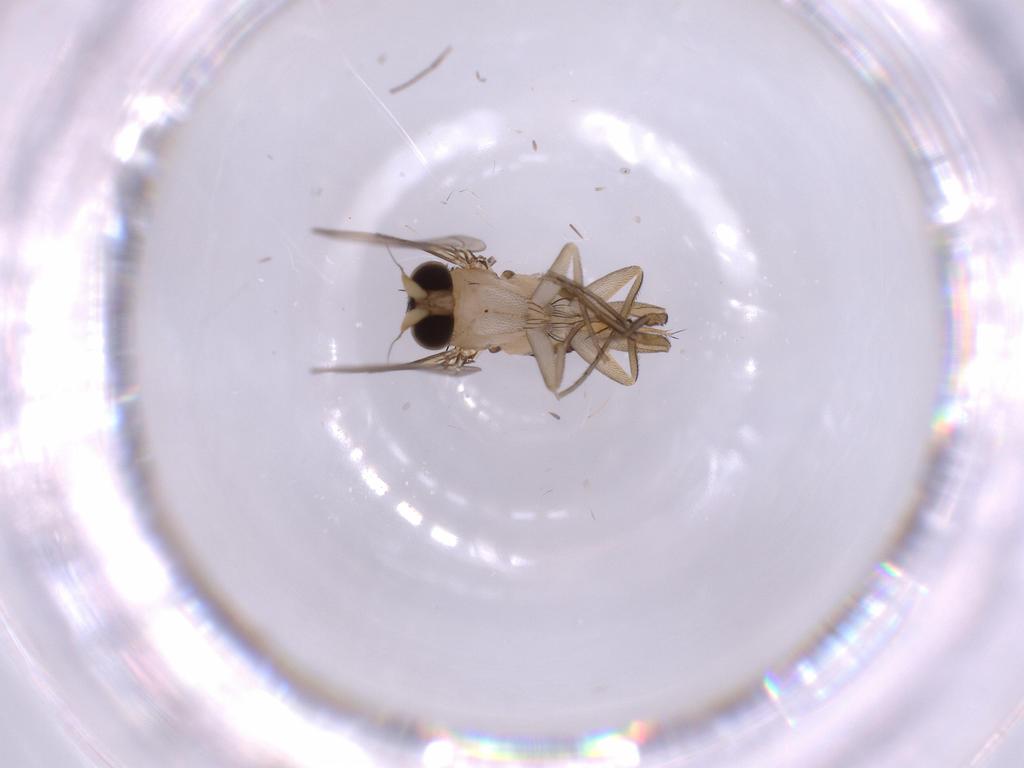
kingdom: Animalia
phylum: Arthropoda
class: Insecta
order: Diptera
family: Phoridae
